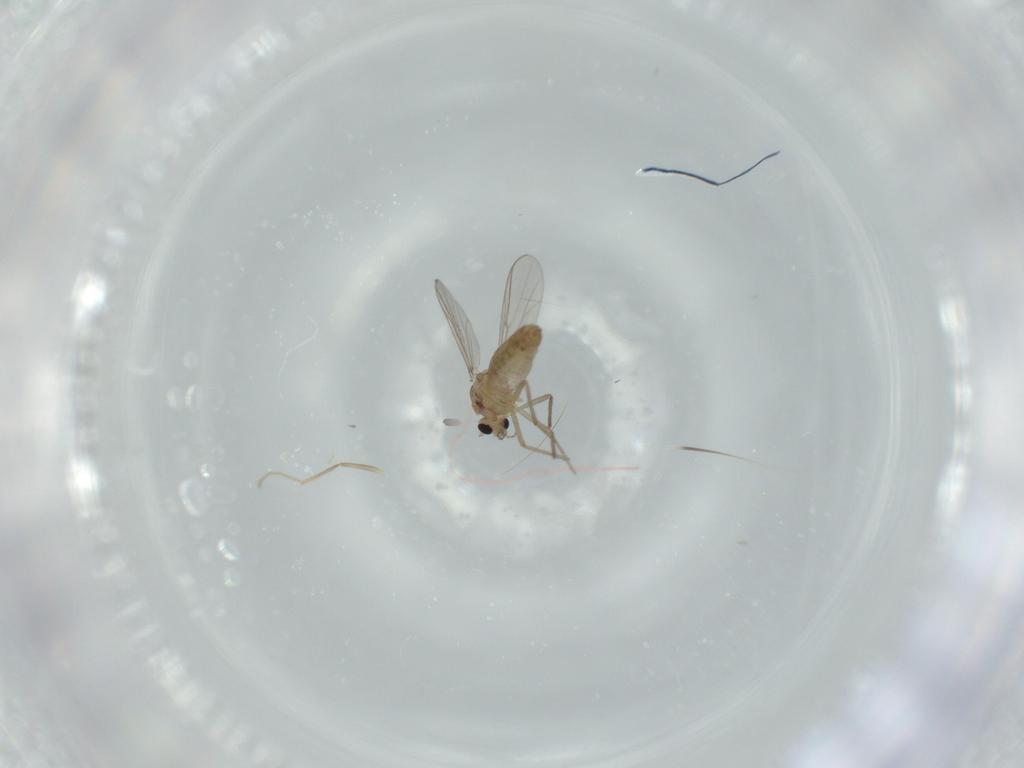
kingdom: Animalia
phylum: Arthropoda
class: Insecta
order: Diptera
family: Chironomidae
